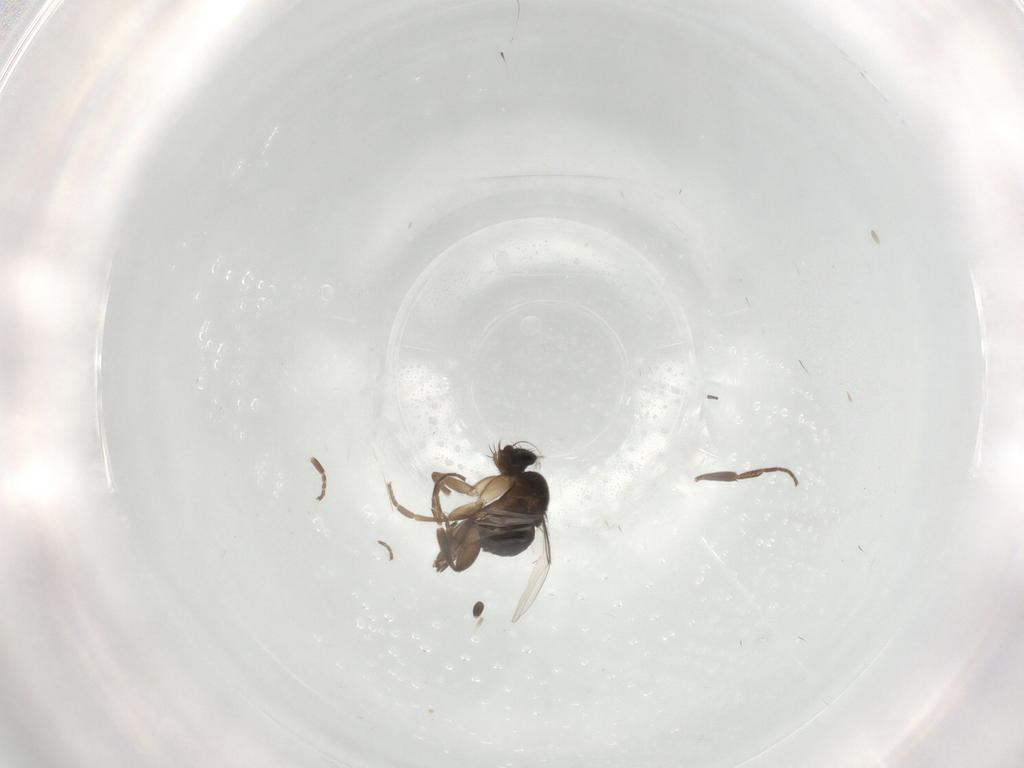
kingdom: Animalia
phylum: Arthropoda
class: Insecta
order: Diptera
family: Phoridae
